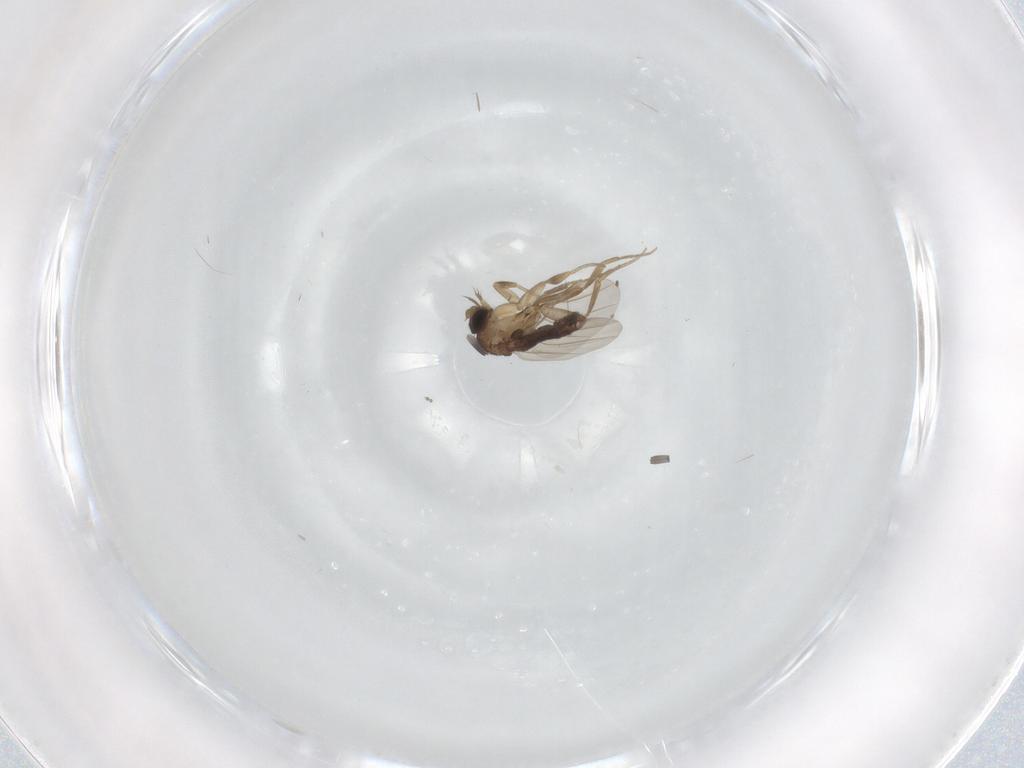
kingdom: Animalia
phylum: Arthropoda
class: Insecta
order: Diptera
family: Phoridae
